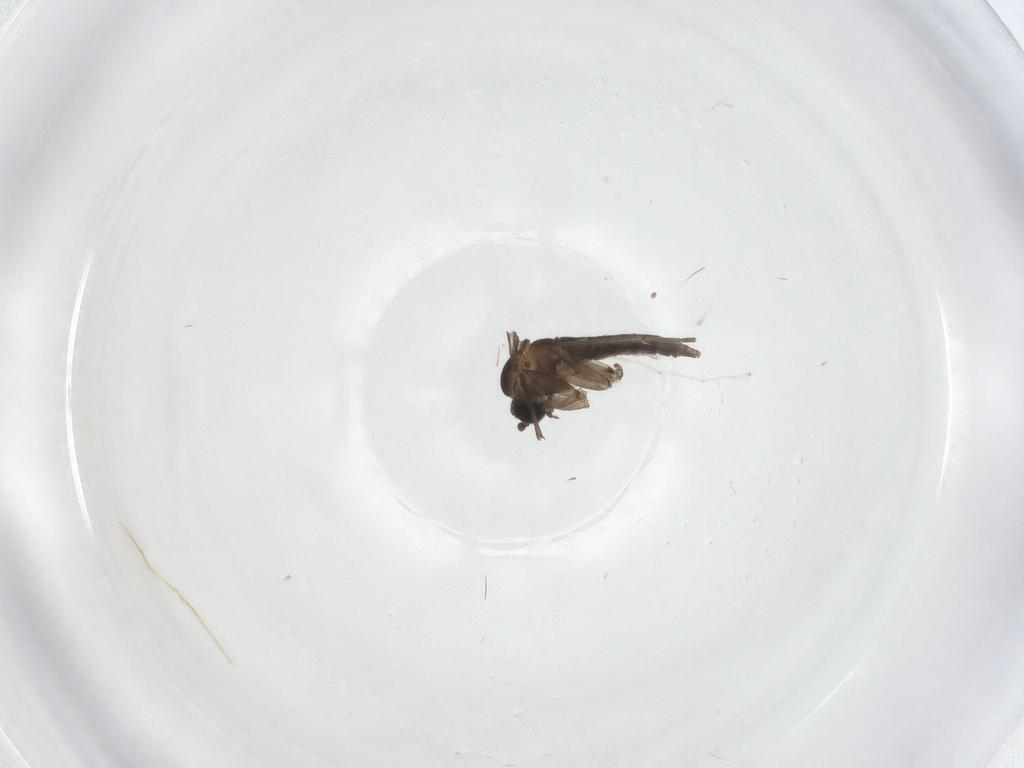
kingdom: Animalia
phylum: Arthropoda
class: Insecta
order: Diptera
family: Sciaridae
